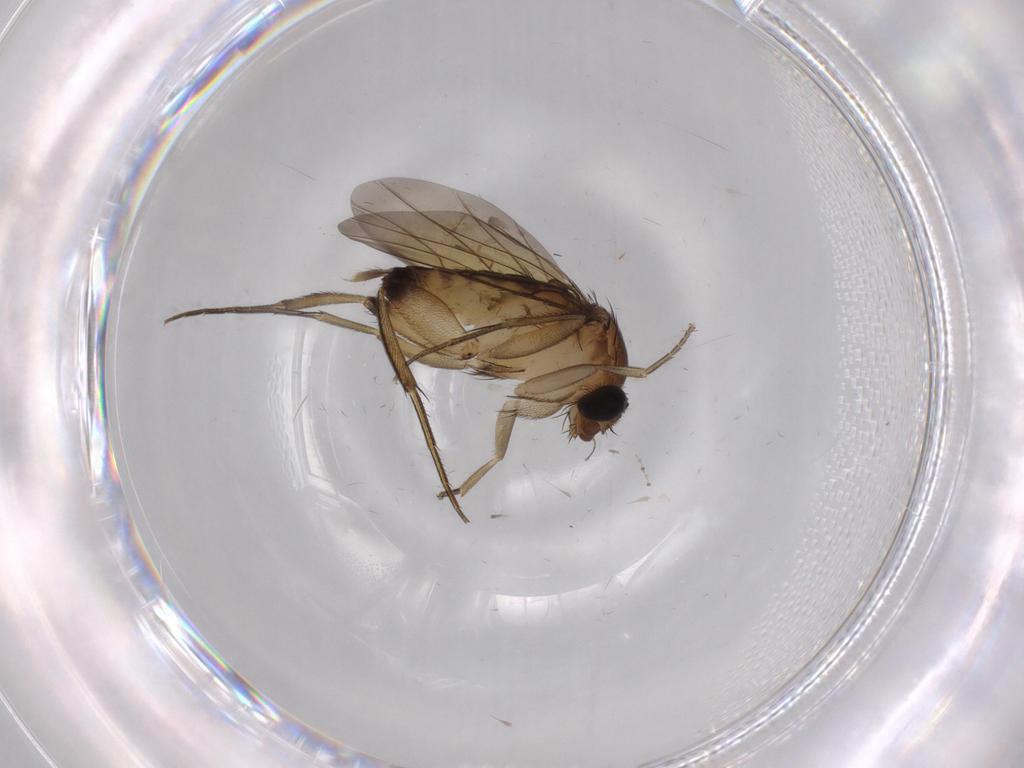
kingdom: Animalia
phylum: Arthropoda
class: Insecta
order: Diptera
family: Phoridae
